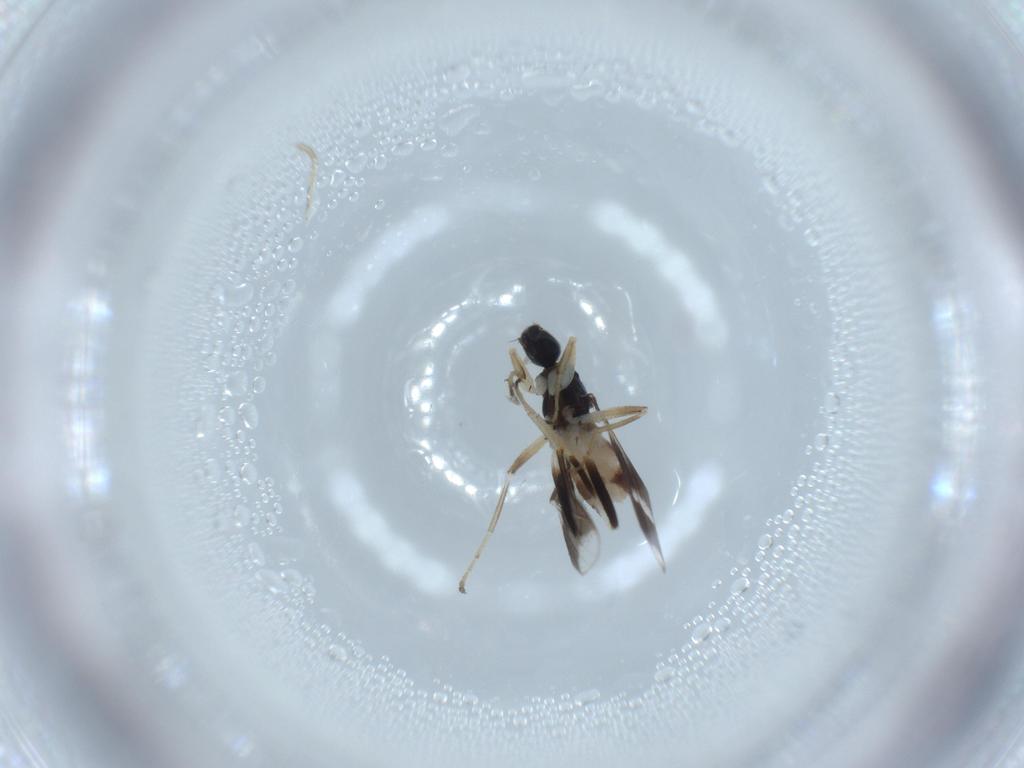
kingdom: Animalia
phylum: Arthropoda
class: Insecta
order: Diptera
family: Hybotidae
